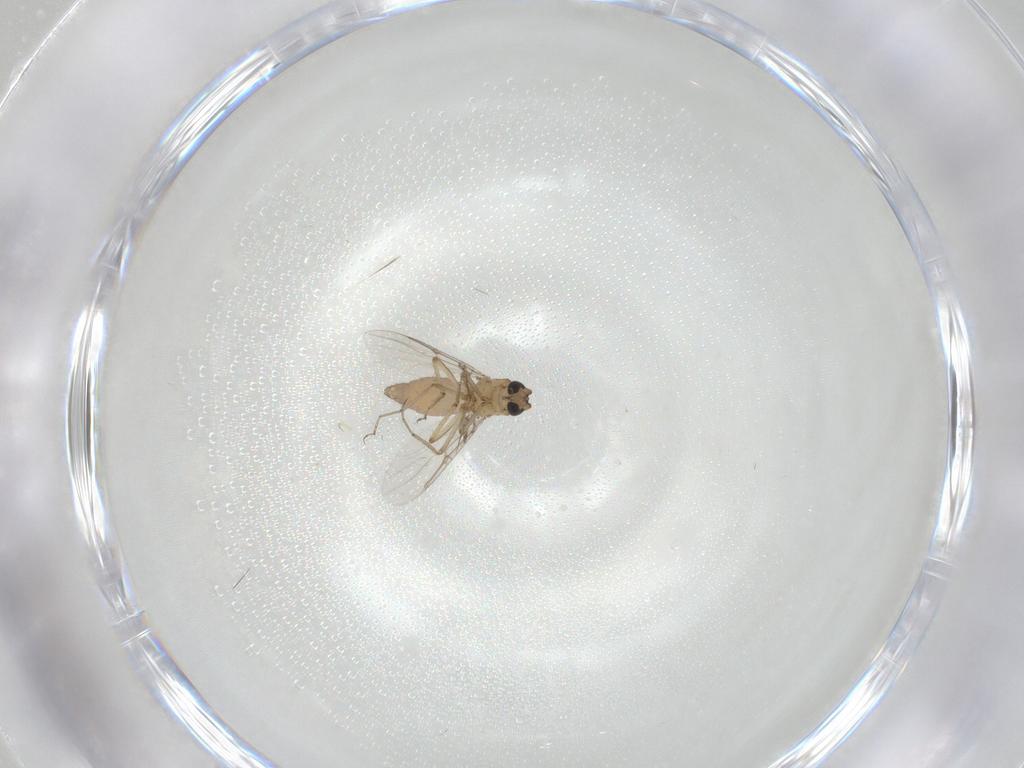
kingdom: Animalia
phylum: Arthropoda
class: Insecta
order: Diptera
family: Ceratopogonidae
